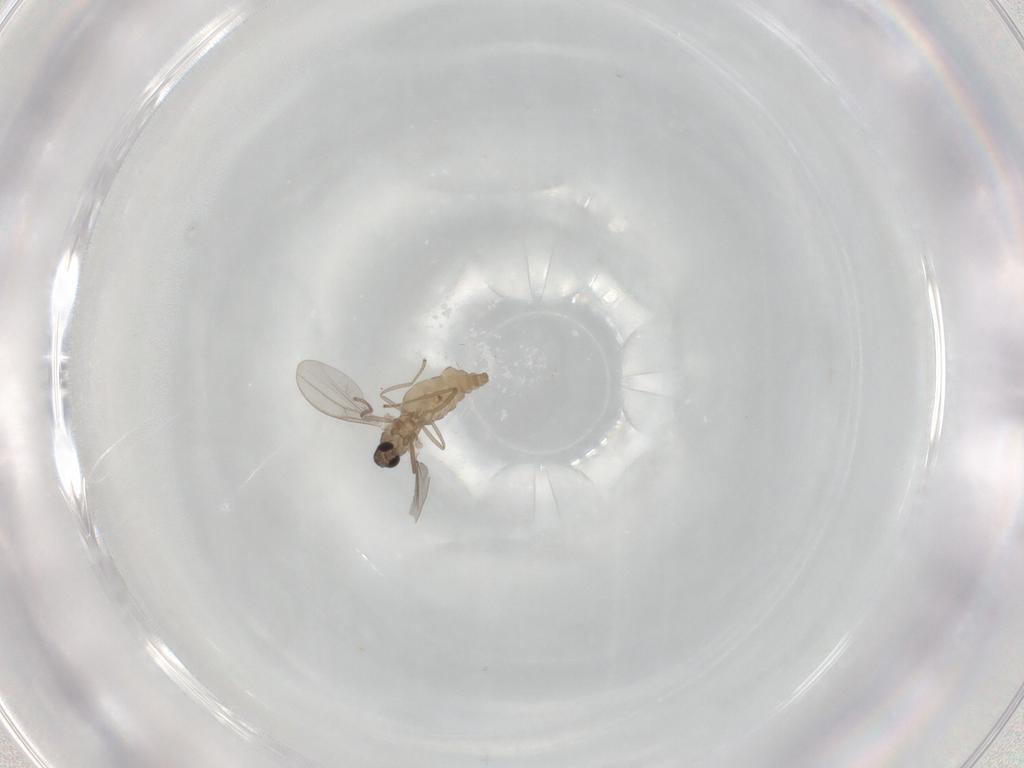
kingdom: Animalia
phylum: Arthropoda
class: Insecta
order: Diptera
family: Cecidomyiidae
